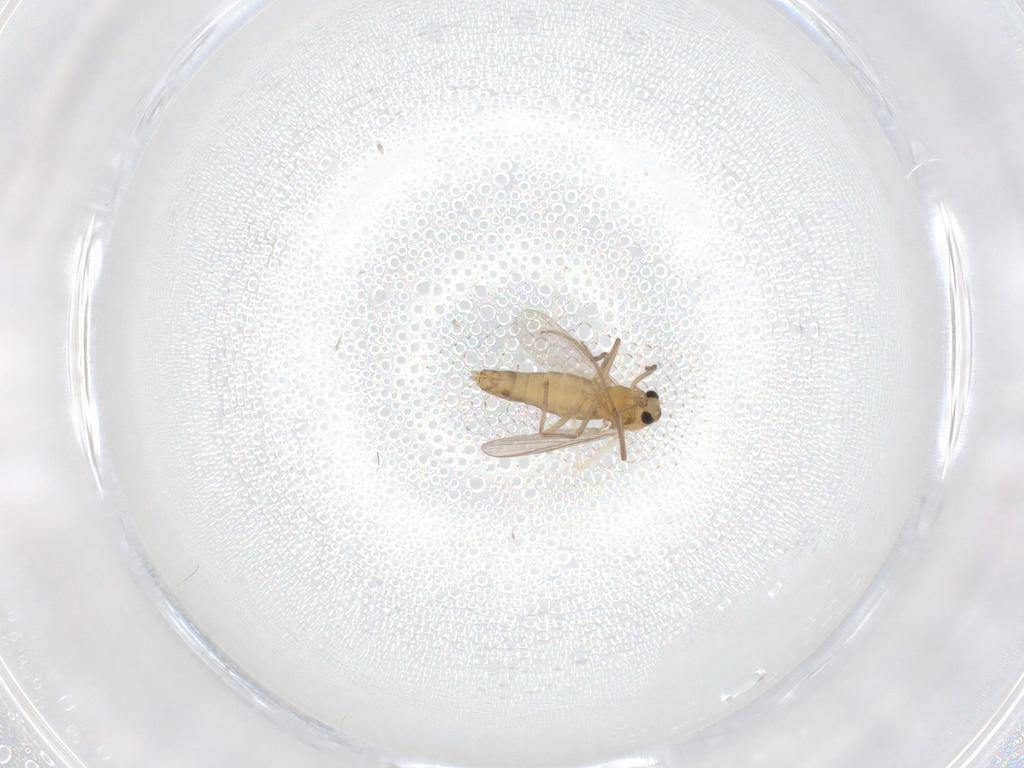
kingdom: Animalia
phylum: Arthropoda
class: Insecta
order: Diptera
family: Chironomidae
